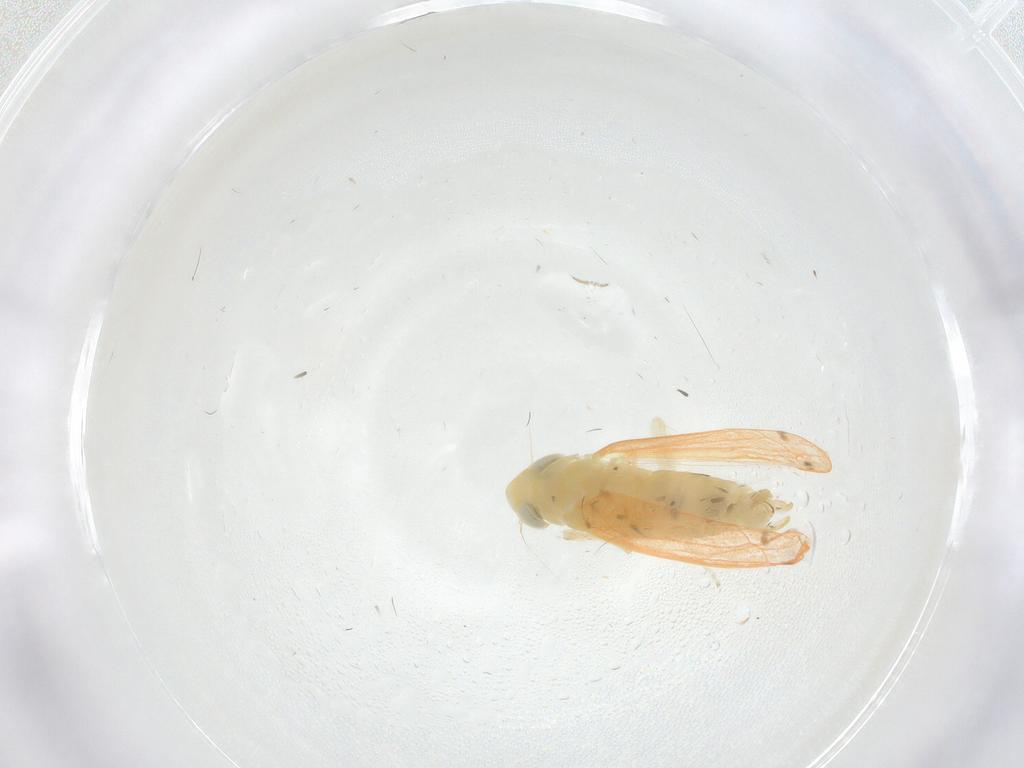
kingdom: Animalia
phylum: Arthropoda
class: Insecta
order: Hemiptera
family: Cicadellidae
